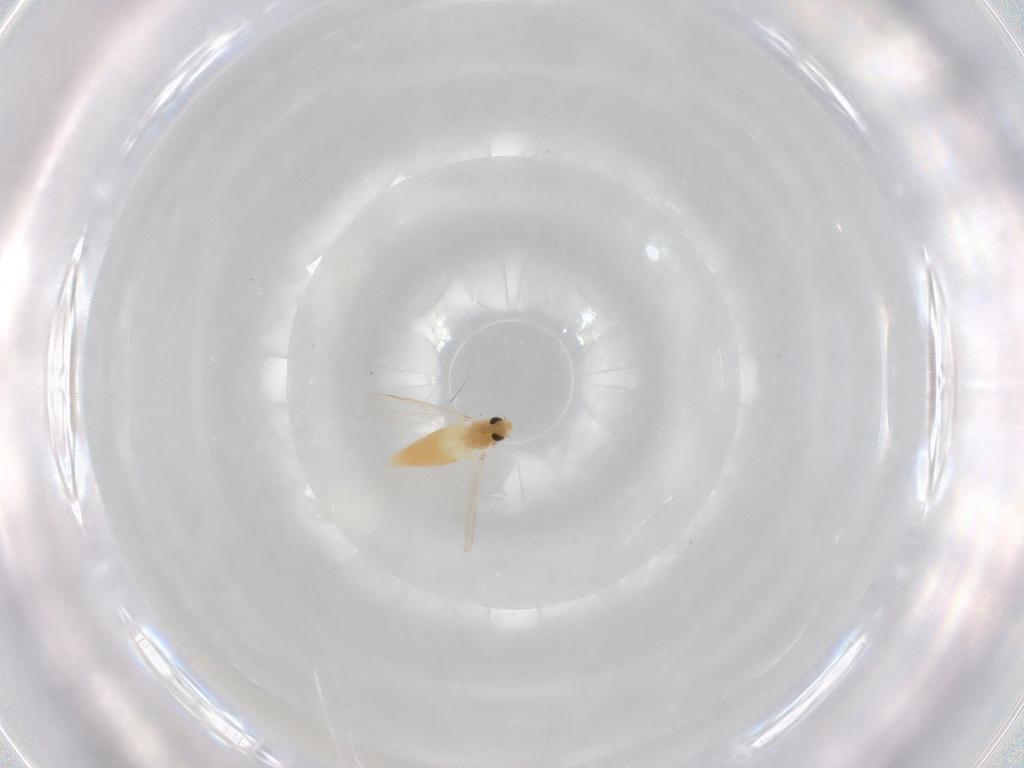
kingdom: Animalia
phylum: Arthropoda
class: Insecta
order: Diptera
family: Chironomidae
